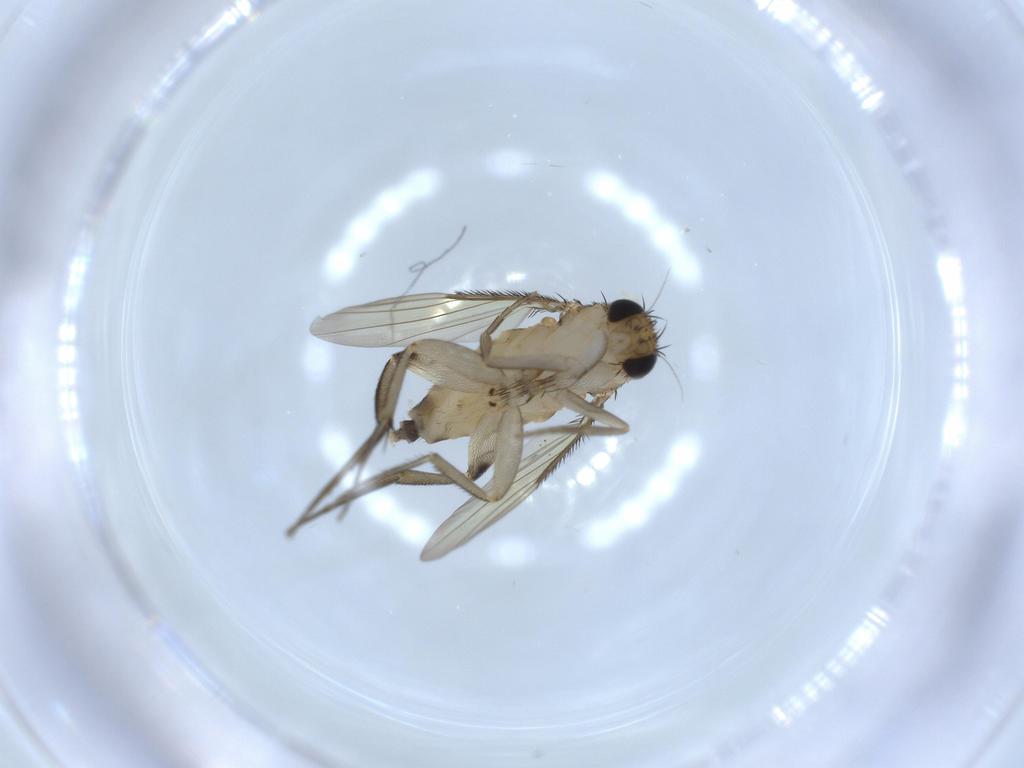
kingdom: Animalia
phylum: Arthropoda
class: Insecta
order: Diptera
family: Phoridae
